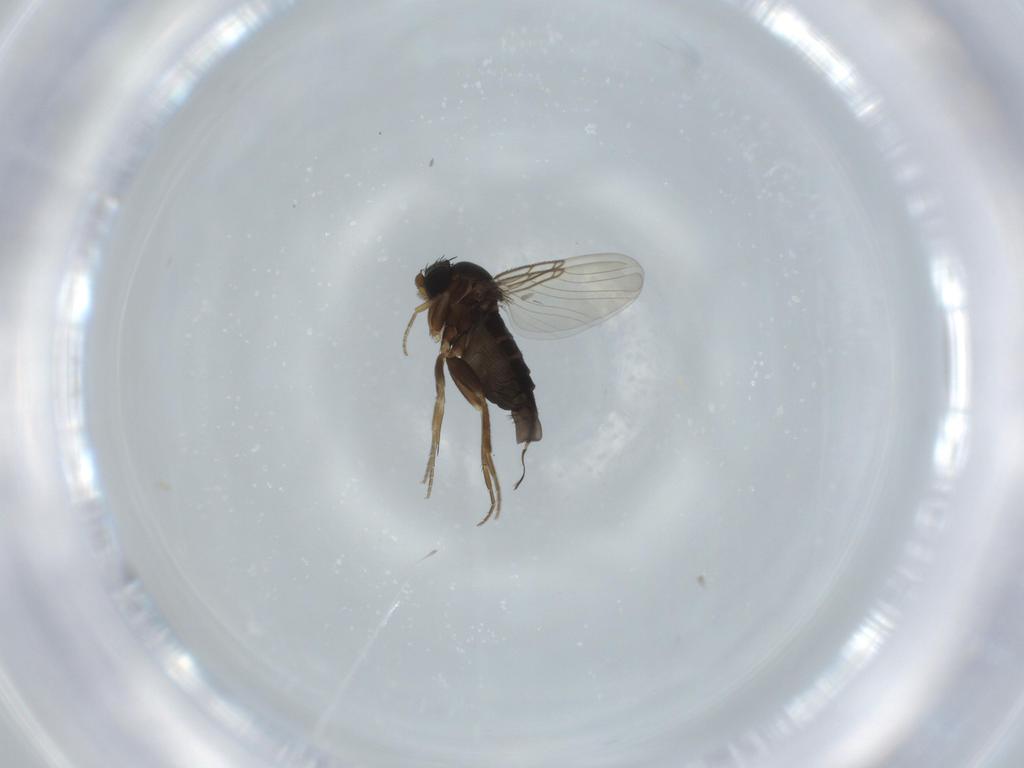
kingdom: Animalia
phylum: Arthropoda
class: Insecta
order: Diptera
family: Phoridae
